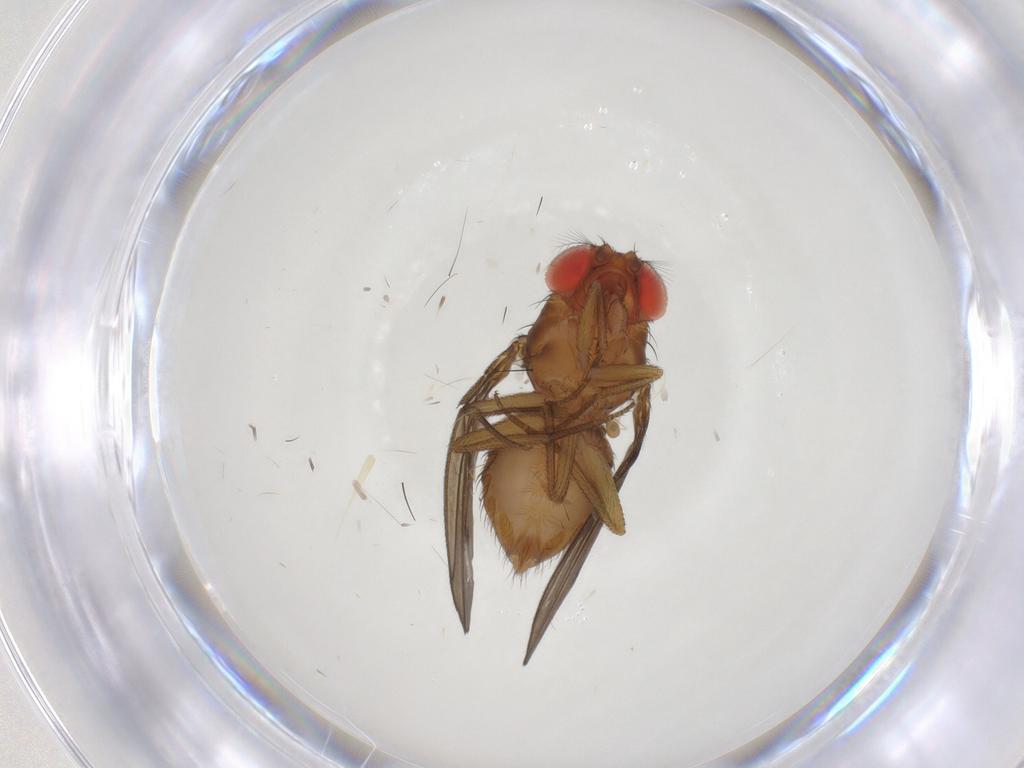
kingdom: Animalia
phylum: Arthropoda
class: Insecta
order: Diptera
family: Drosophilidae
